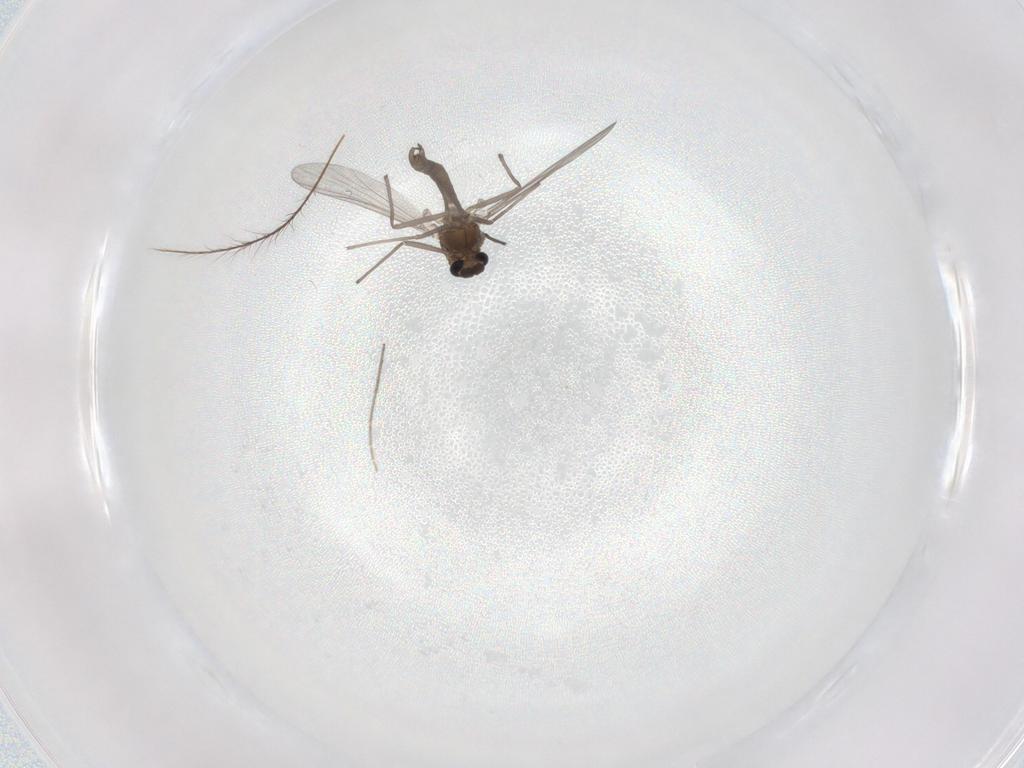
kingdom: Animalia
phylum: Arthropoda
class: Insecta
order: Diptera
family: Chironomidae
